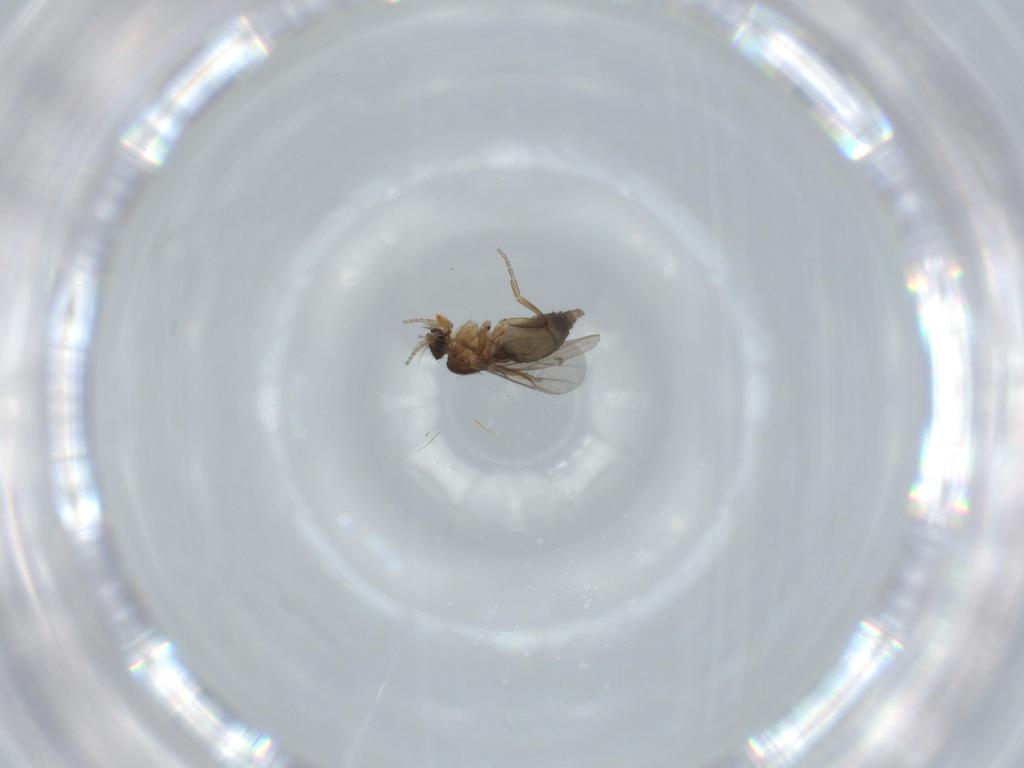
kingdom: Animalia
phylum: Arthropoda
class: Insecta
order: Diptera
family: Phoridae
